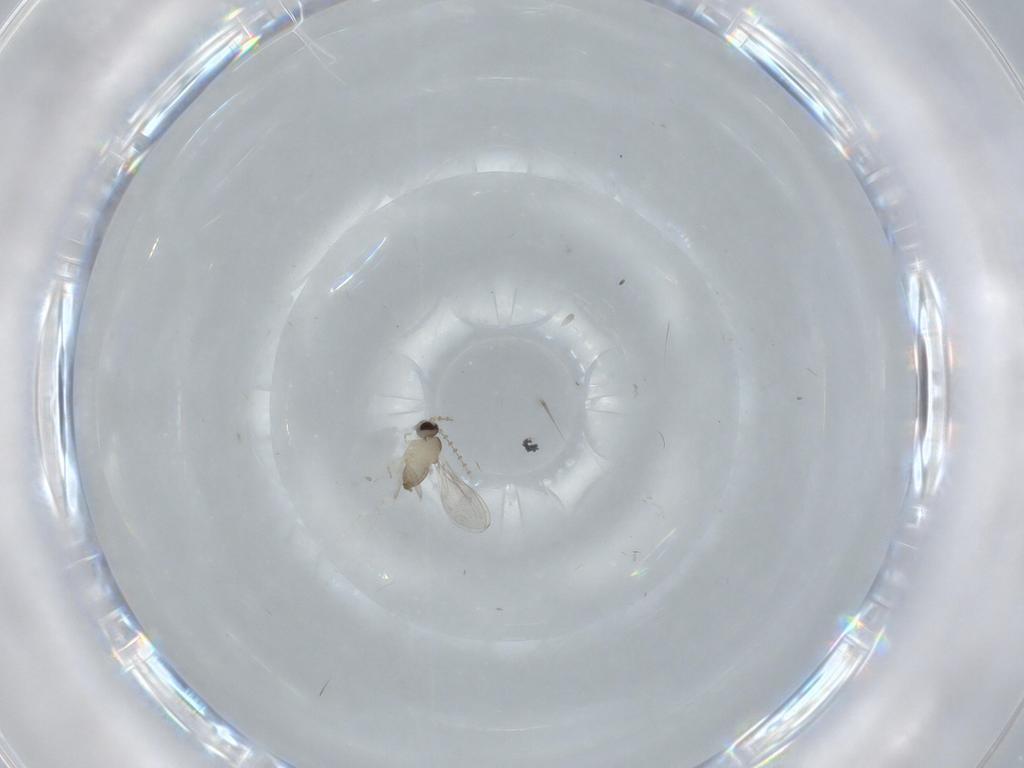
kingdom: Animalia
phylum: Arthropoda
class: Insecta
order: Diptera
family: Cecidomyiidae
